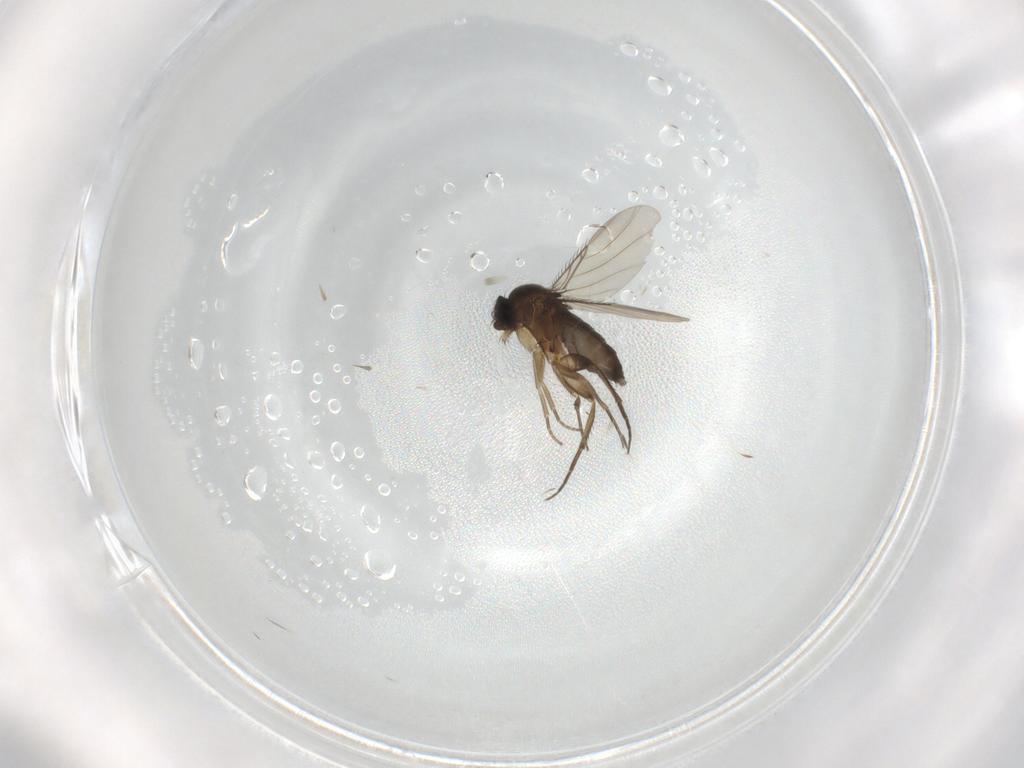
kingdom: Animalia
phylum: Arthropoda
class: Insecta
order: Diptera
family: Phoridae
